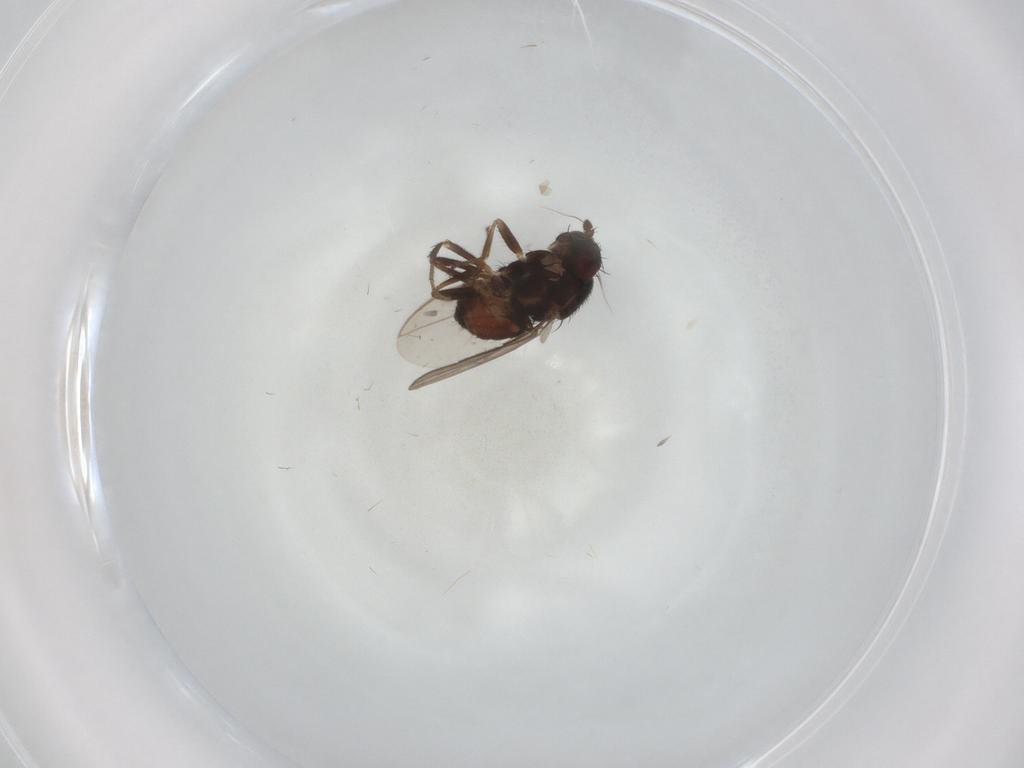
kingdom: Animalia
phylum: Arthropoda
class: Insecta
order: Diptera
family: Sphaeroceridae
